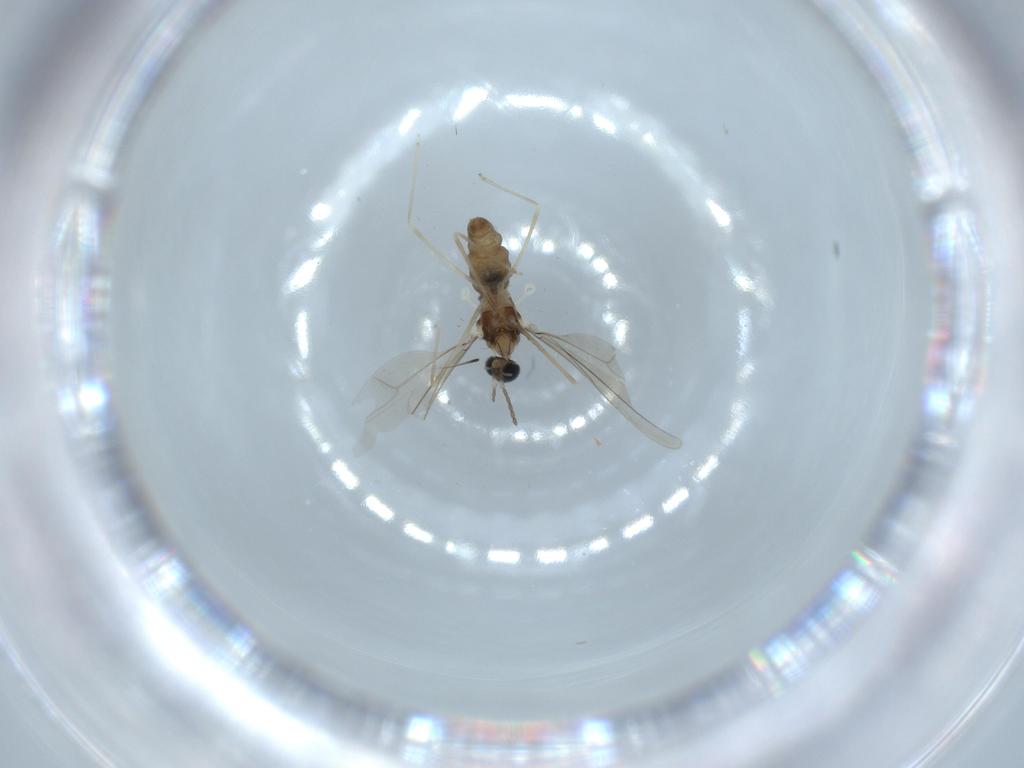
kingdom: Animalia
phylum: Arthropoda
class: Insecta
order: Diptera
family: Cecidomyiidae
